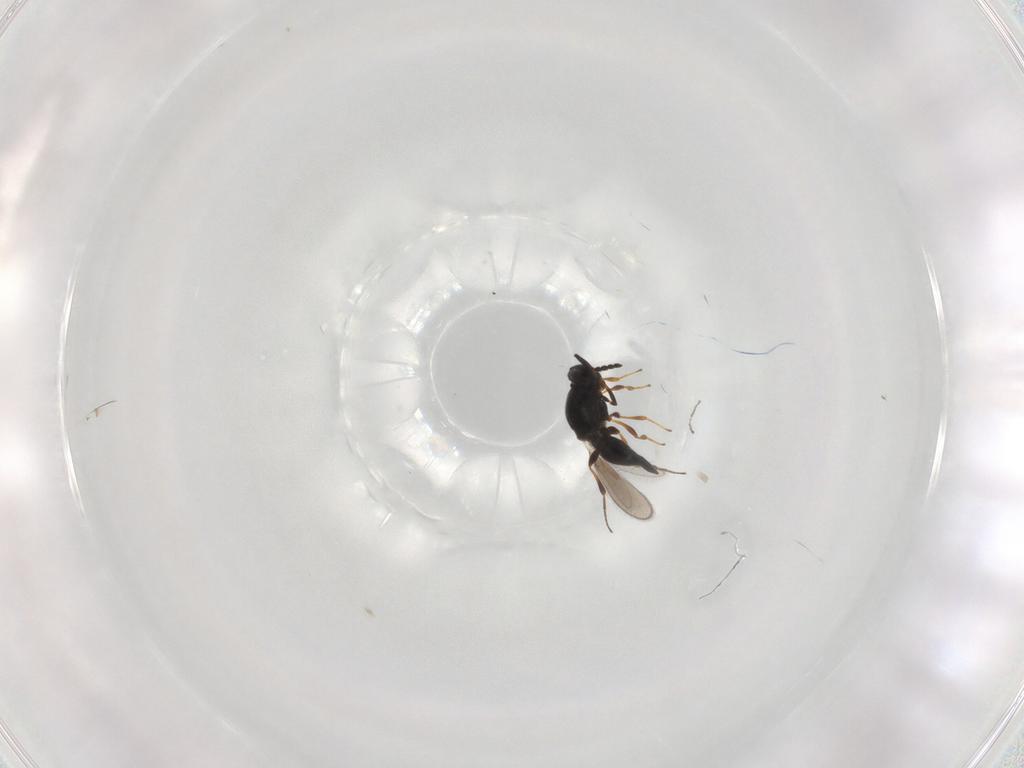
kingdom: Animalia
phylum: Arthropoda
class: Insecta
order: Hymenoptera
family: Platygastridae
